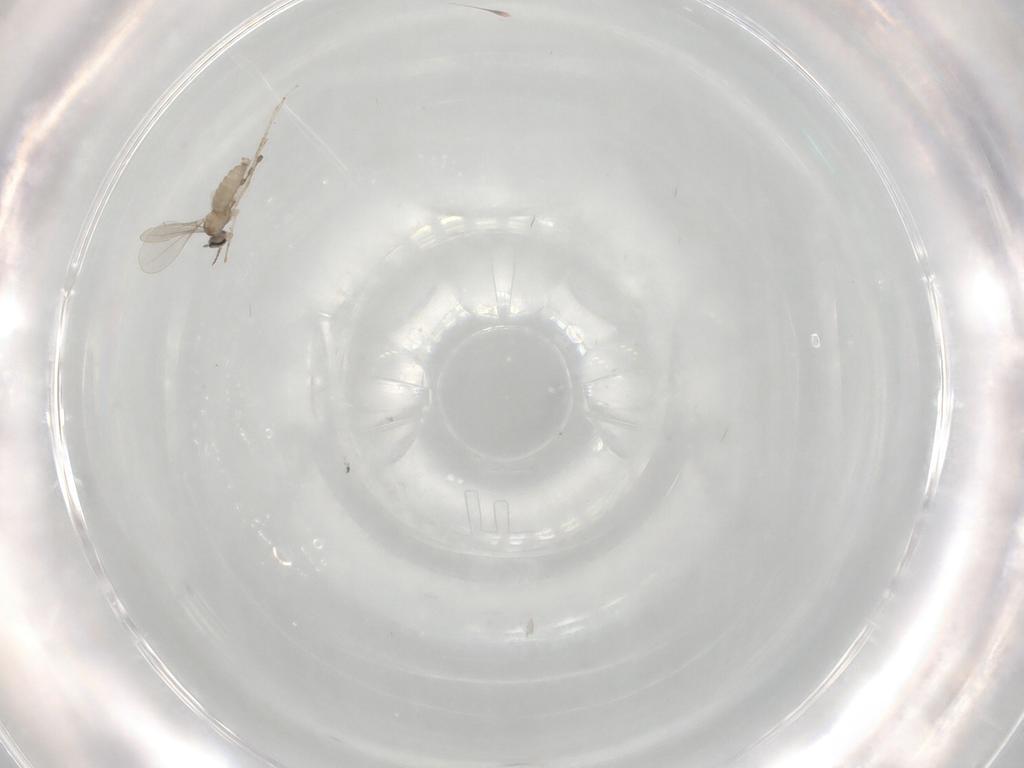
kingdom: Animalia
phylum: Arthropoda
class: Insecta
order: Diptera
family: Cecidomyiidae
